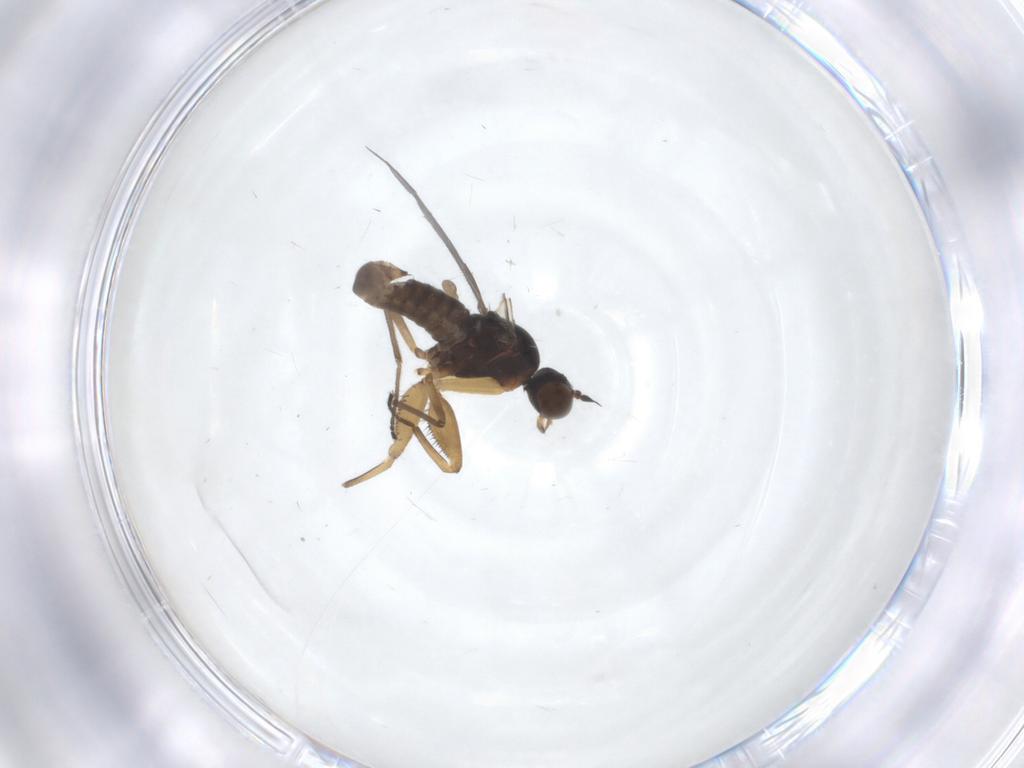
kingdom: Animalia
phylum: Arthropoda
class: Insecta
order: Diptera
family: Empididae
